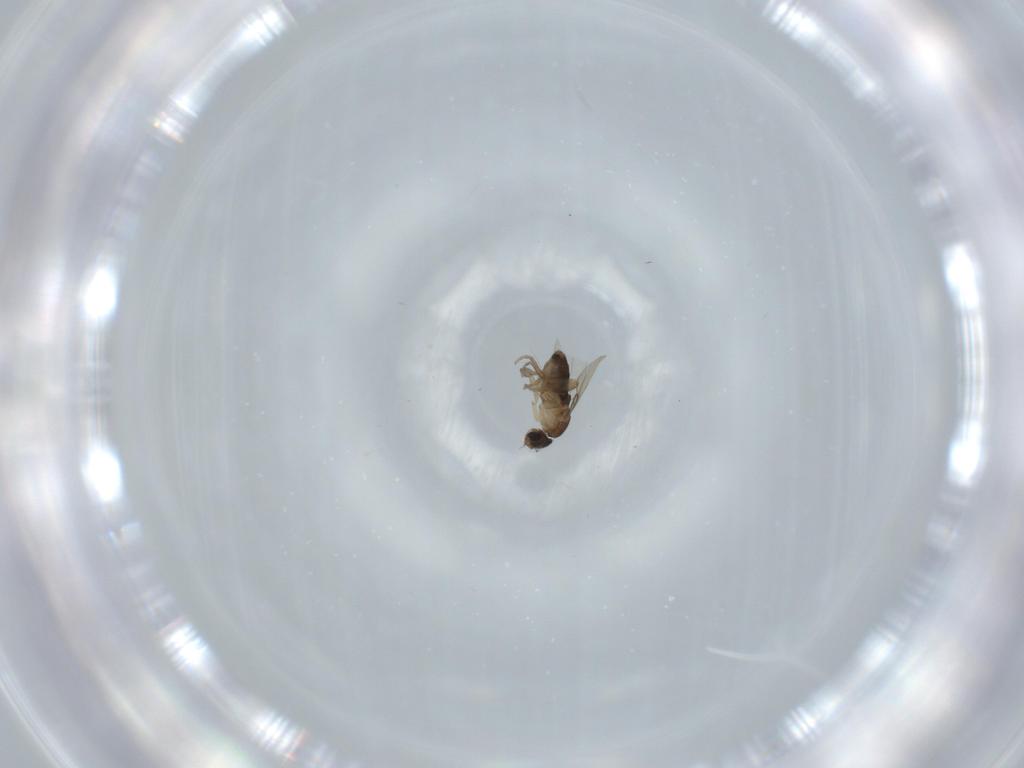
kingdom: Animalia
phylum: Arthropoda
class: Insecta
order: Diptera
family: Phoridae
